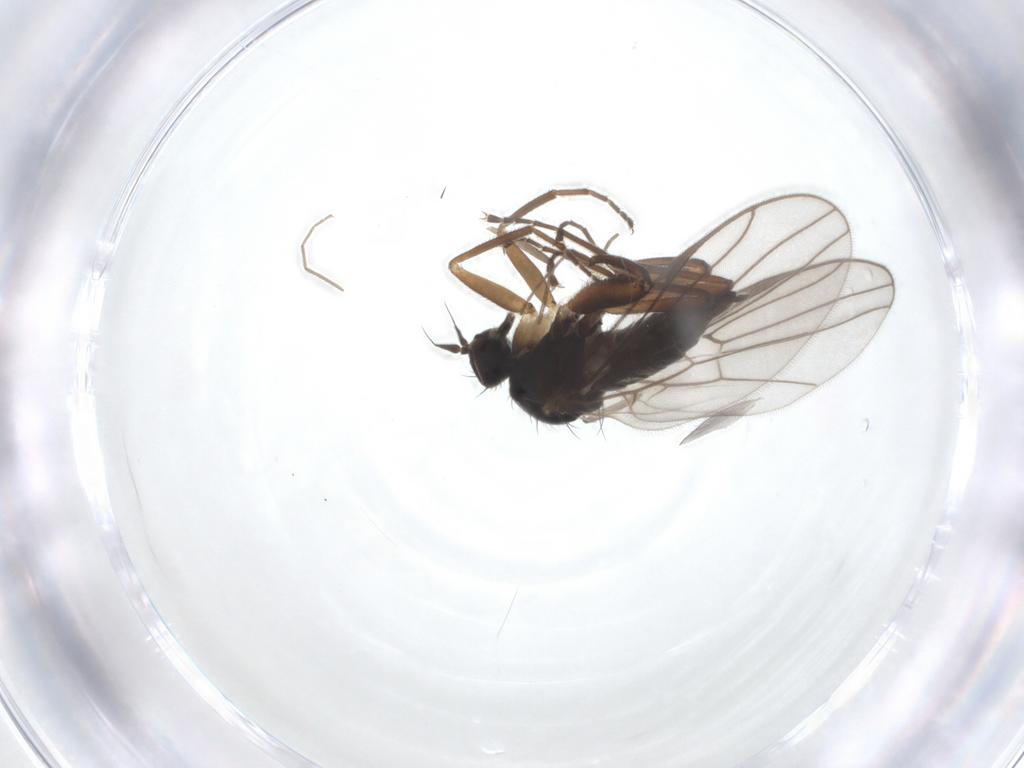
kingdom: Animalia
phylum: Arthropoda
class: Insecta
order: Diptera
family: Hybotidae
